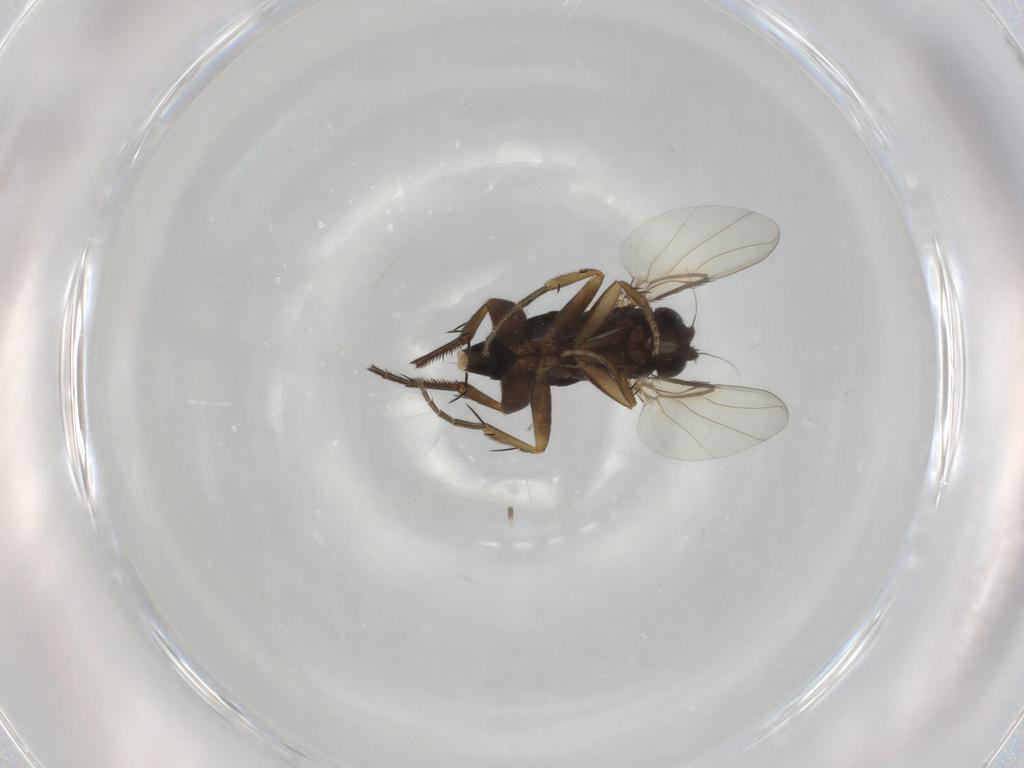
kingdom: Animalia
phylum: Arthropoda
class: Insecta
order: Diptera
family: Phoridae
